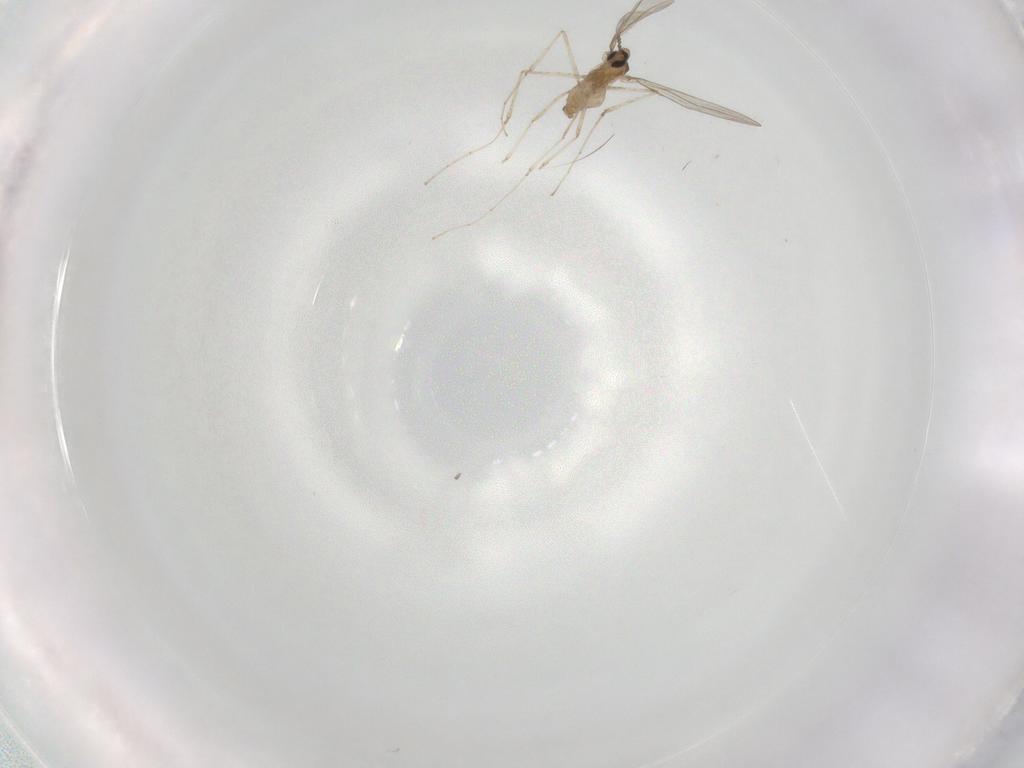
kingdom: Animalia
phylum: Arthropoda
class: Insecta
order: Diptera
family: Cecidomyiidae
